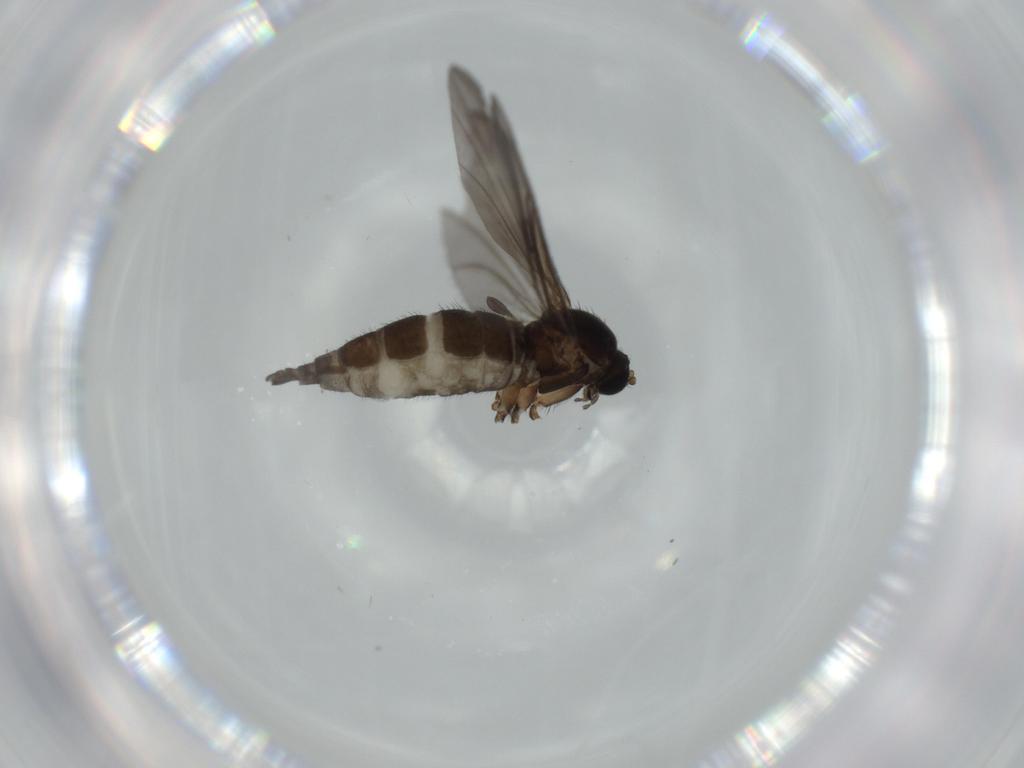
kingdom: Animalia
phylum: Arthropoda
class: Insecta
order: Diptera
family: Sciaridae
